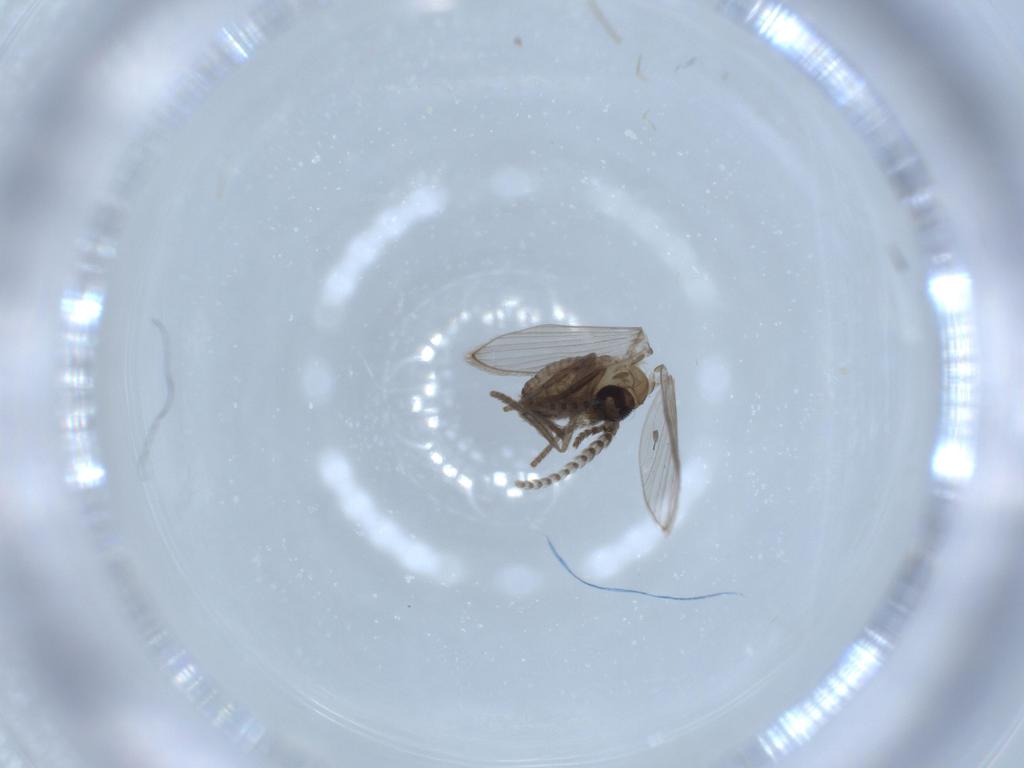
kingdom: Animalia
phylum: Arthropoda
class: Insecta
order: Diptera
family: Psychodidae
